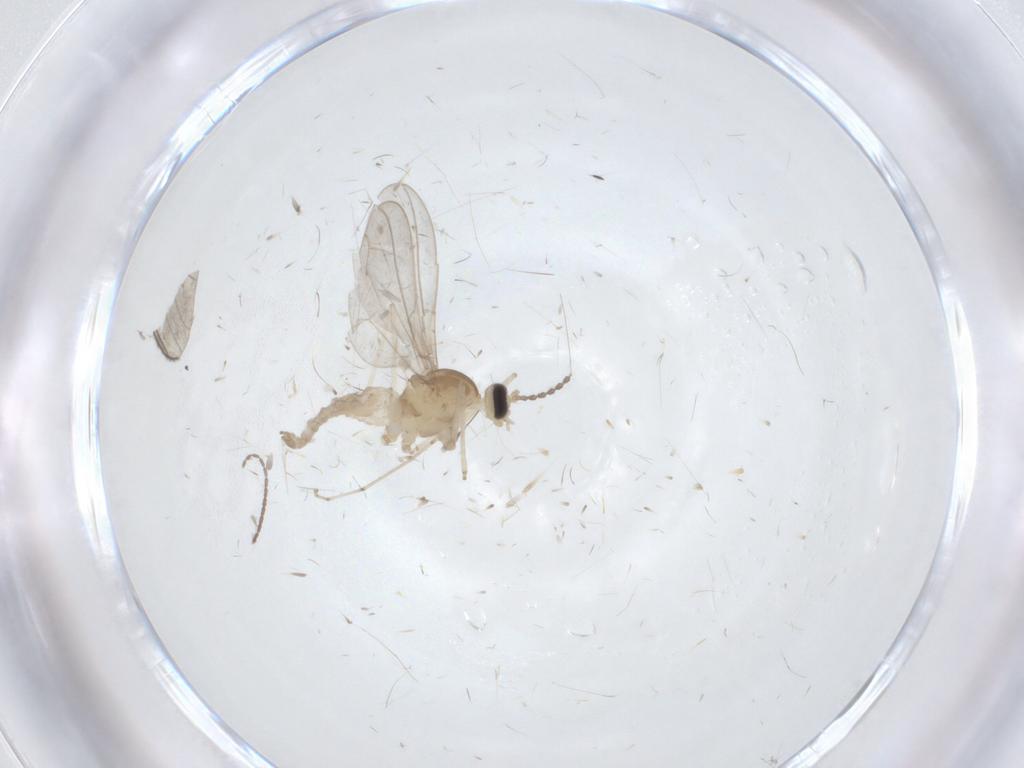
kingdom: Animalia
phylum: Arthropoda
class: Insecta
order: Diptera
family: Chironomidae
